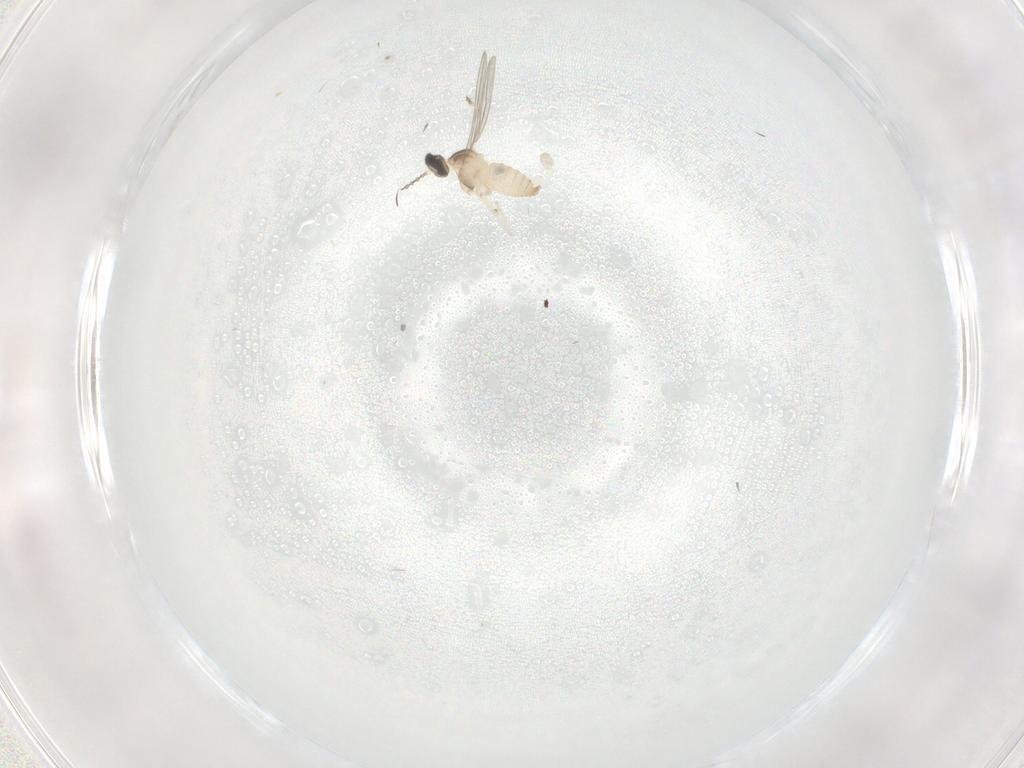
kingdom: Animalia
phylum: Arthropoda
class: Insecta
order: Diptera
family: Cecidomyiidae
